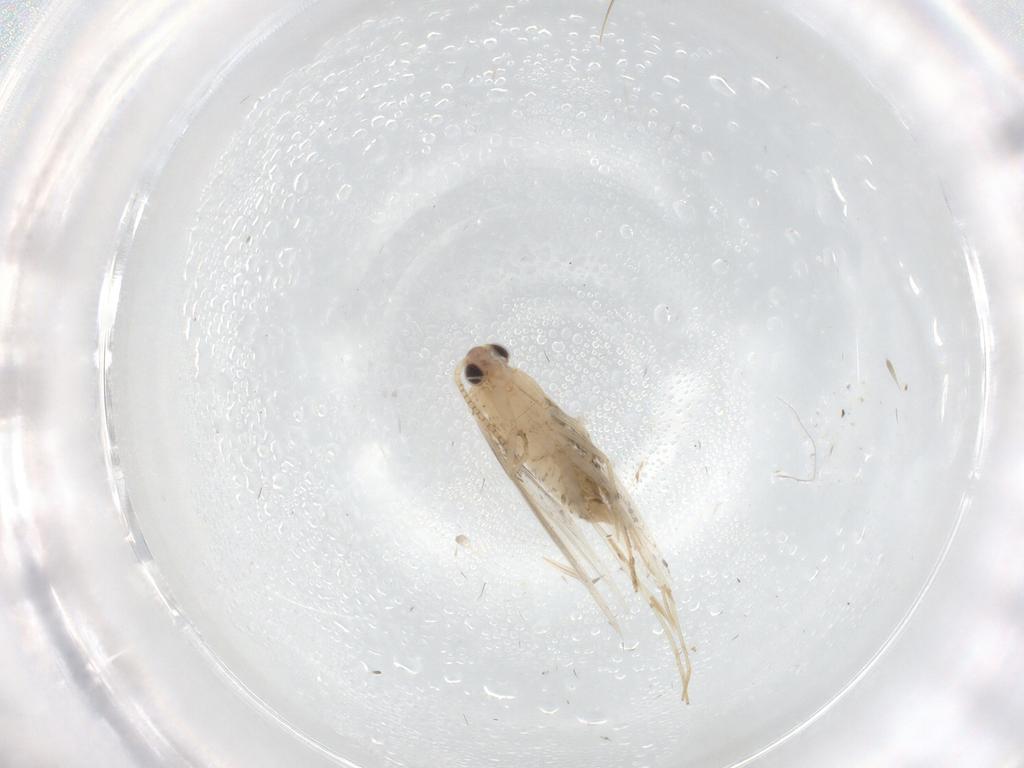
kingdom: Animalia
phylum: Arthropoda
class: Insecta
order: Lepidoptera
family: Tineidae
